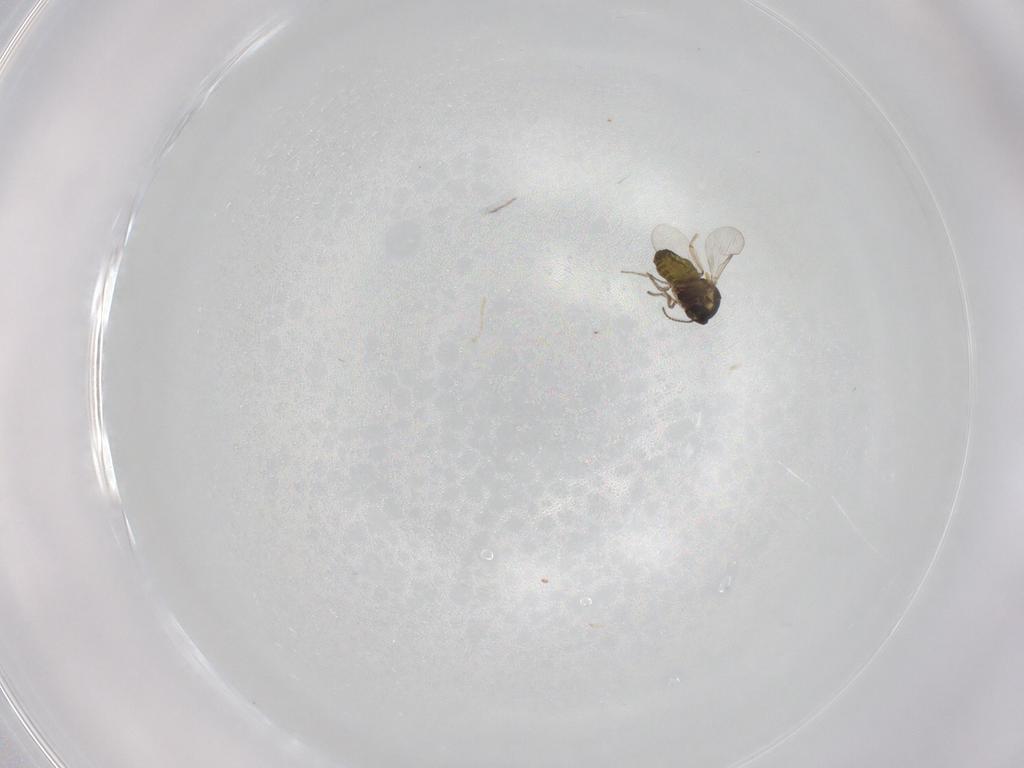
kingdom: Animalia
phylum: Arthropoda
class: Insecta
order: Diptera
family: Ceratopogonidae
